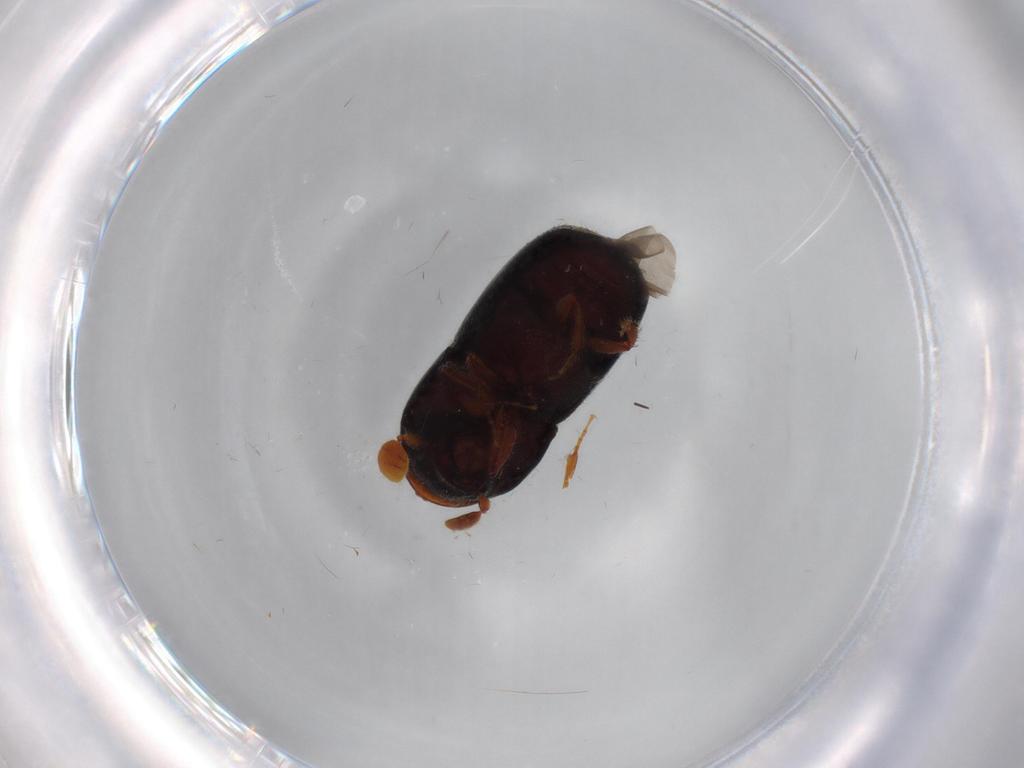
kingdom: Animalia
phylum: Arthropoda
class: Insecta
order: Coleoptera
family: Curculionidae
